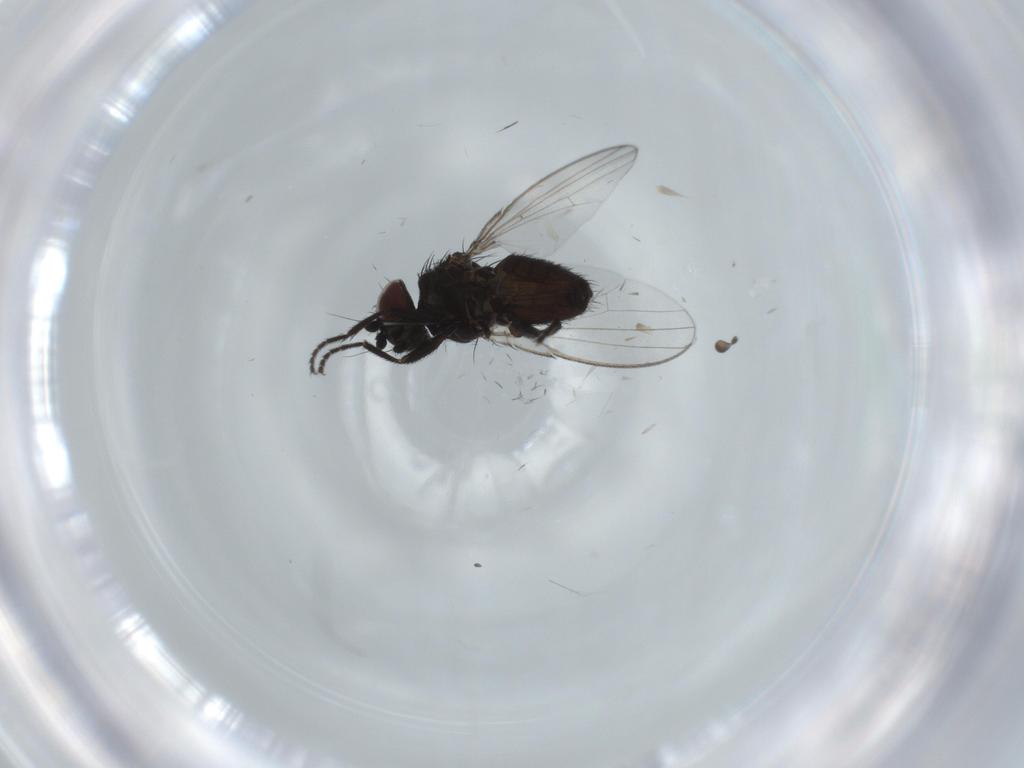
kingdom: Animalia
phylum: Arthropoda
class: Insecta
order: Diptera
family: Milichiidae
